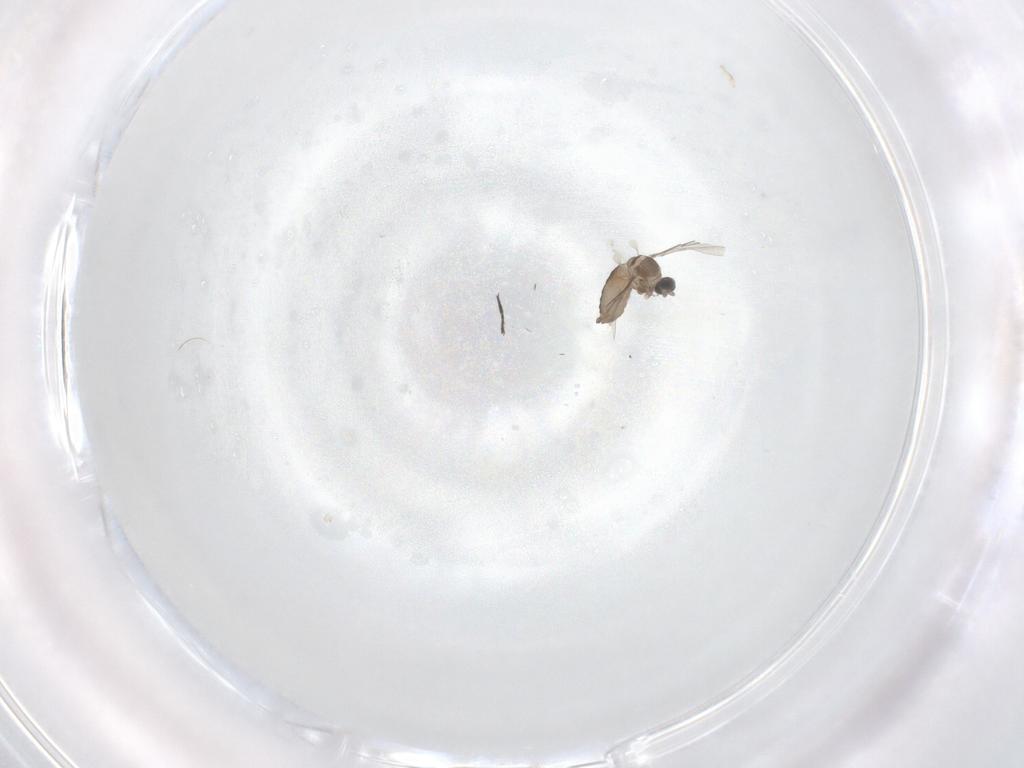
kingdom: Animalia
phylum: Arthropoda
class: Insecta
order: Diptera
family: Cecidomyiidae
